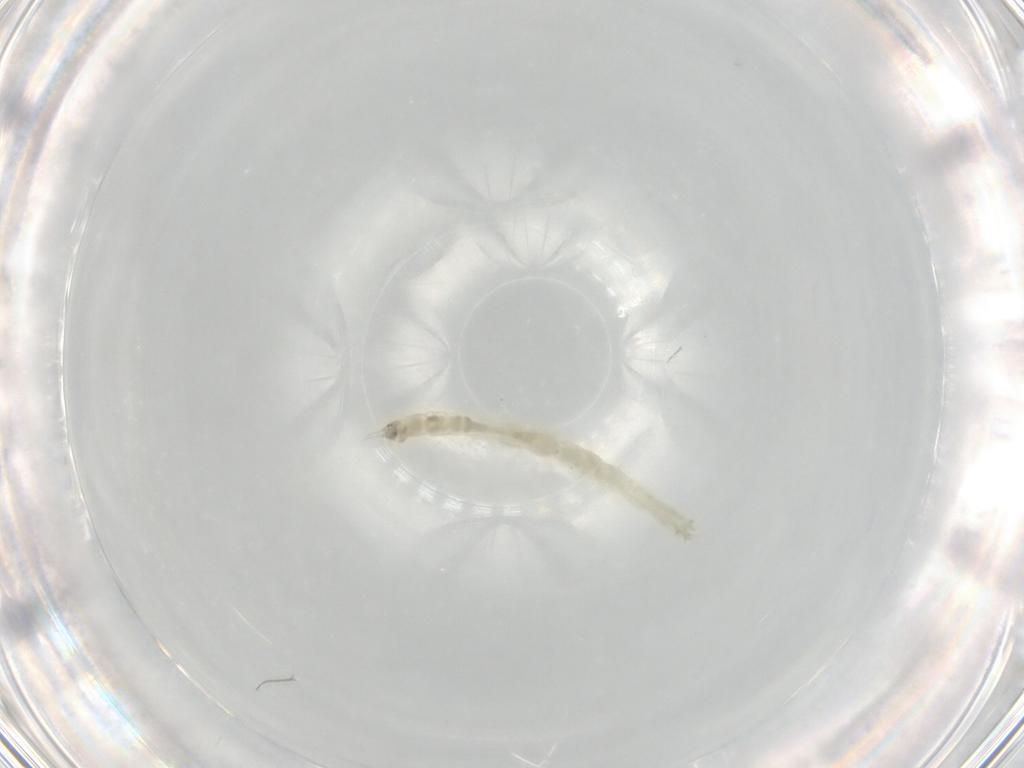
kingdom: Animalia
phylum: Arthropoda
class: Insecta
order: Diptera
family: Chironomidae
